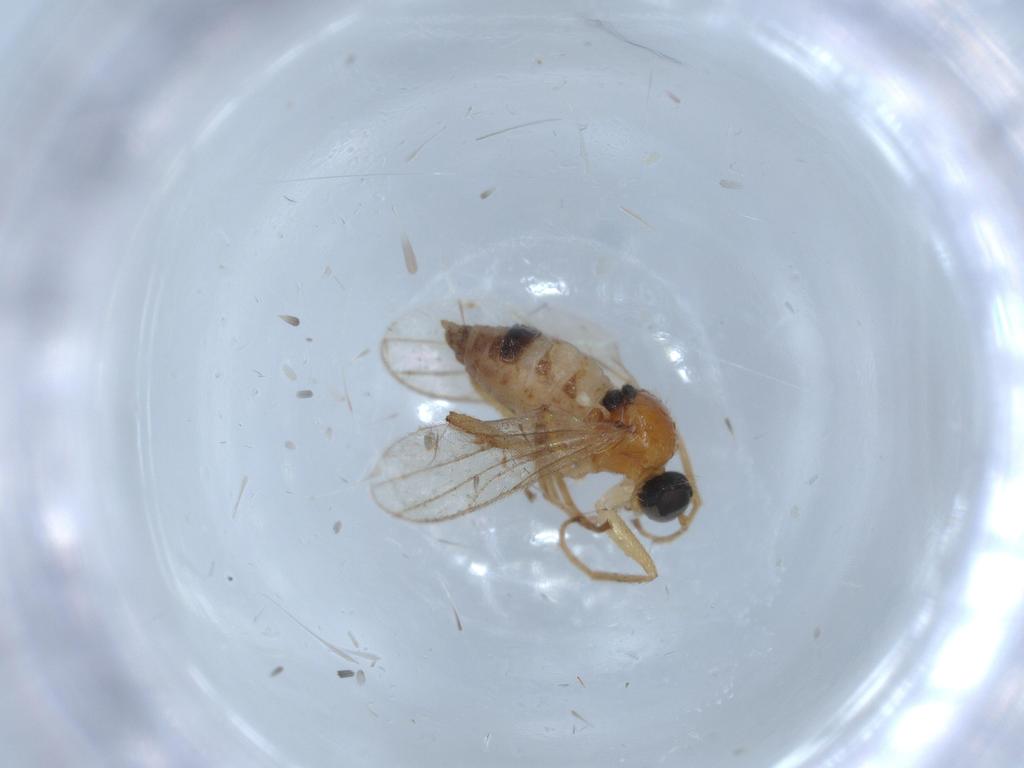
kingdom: Animalia
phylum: Arthropoda
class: Insecta
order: Diptera
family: Hybotidae
